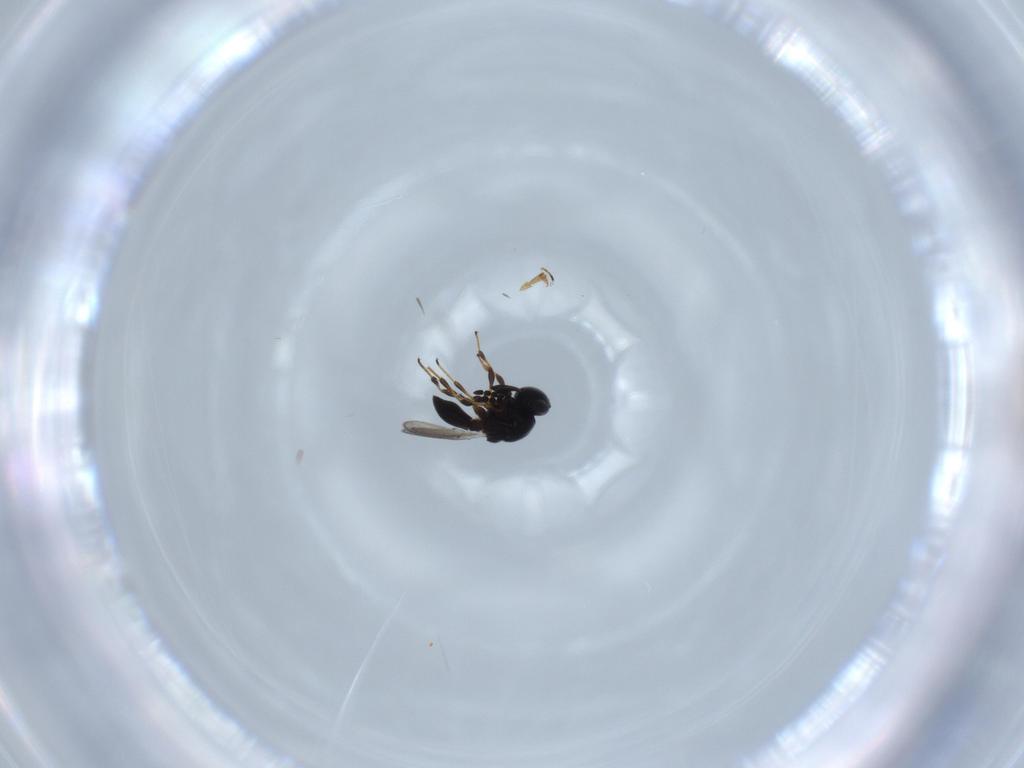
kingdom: Animalia
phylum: Arthropoda
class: Insecta
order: Hymenoptera
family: Platygastridae
